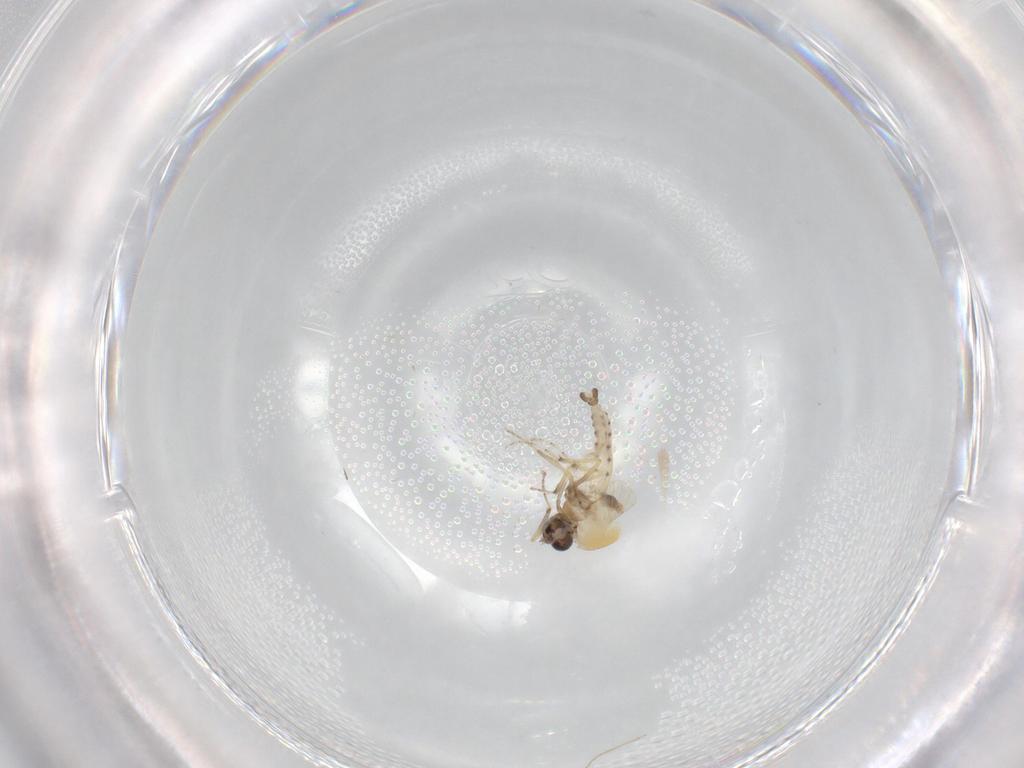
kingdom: Animalia
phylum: Arthropoda
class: Insecta
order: Diptera
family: Ceratopogonidae
